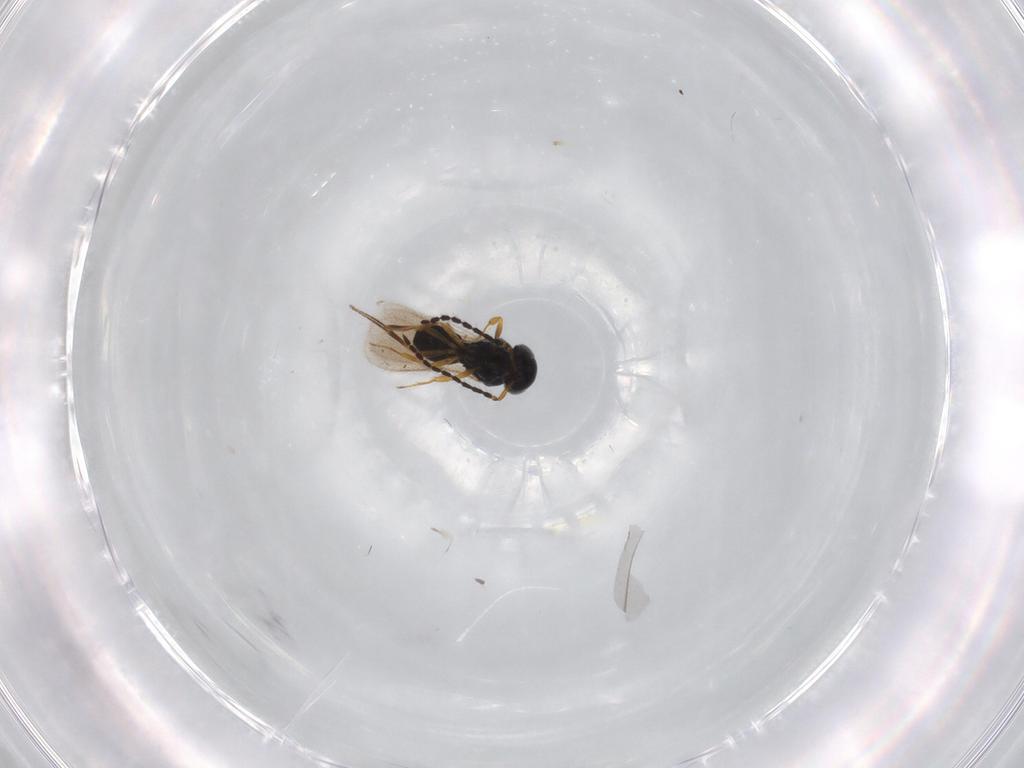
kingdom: Animalia
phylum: Arthropoda
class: Insecta
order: Hymenoptera
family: Scelionidae
